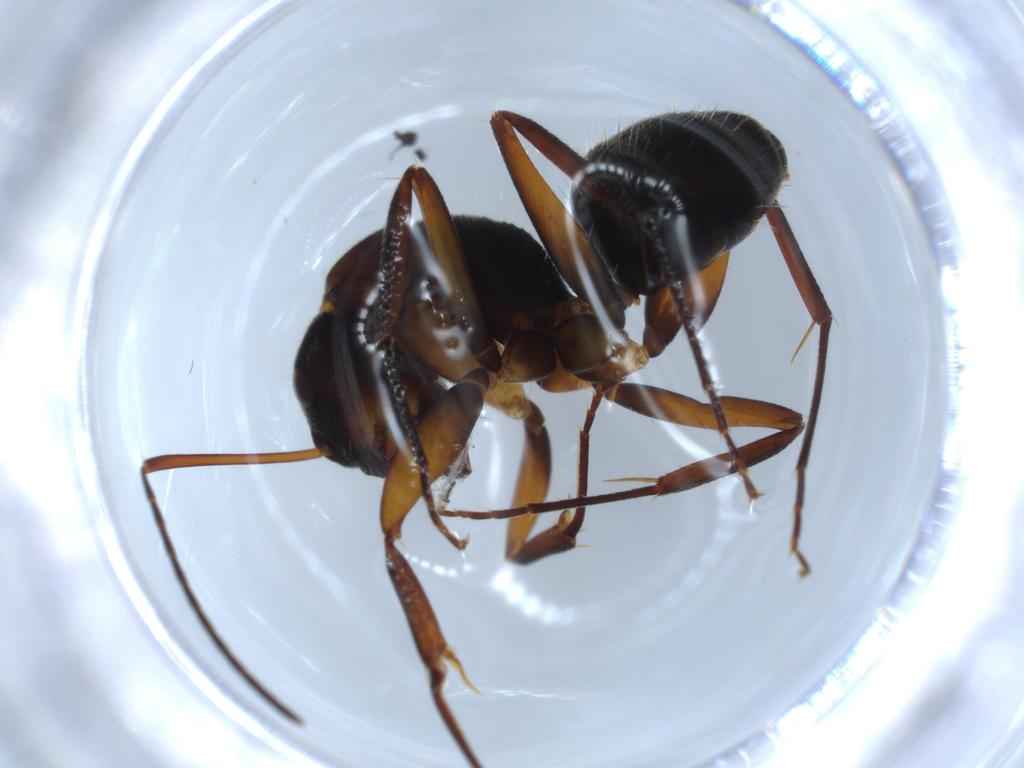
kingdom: Animalia
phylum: Arthropoda
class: Insecta
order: Hymenoptera
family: Formicidae
